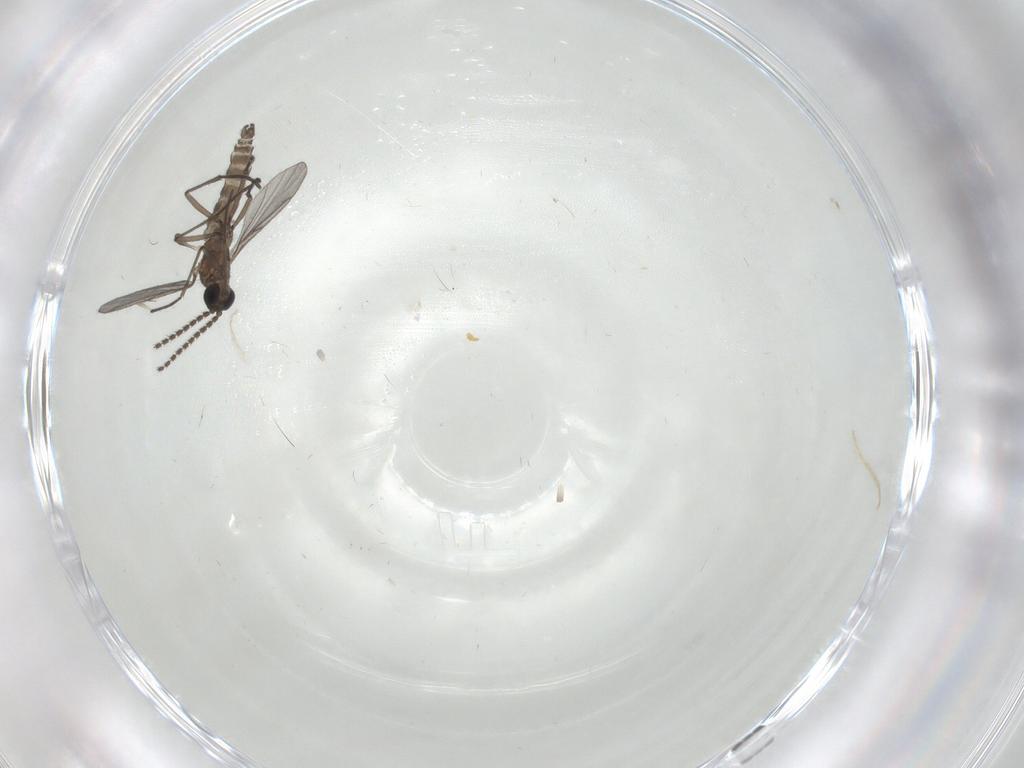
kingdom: Animalia
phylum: Arthropoda
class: Insecta
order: Diptera
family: Sciaridae
